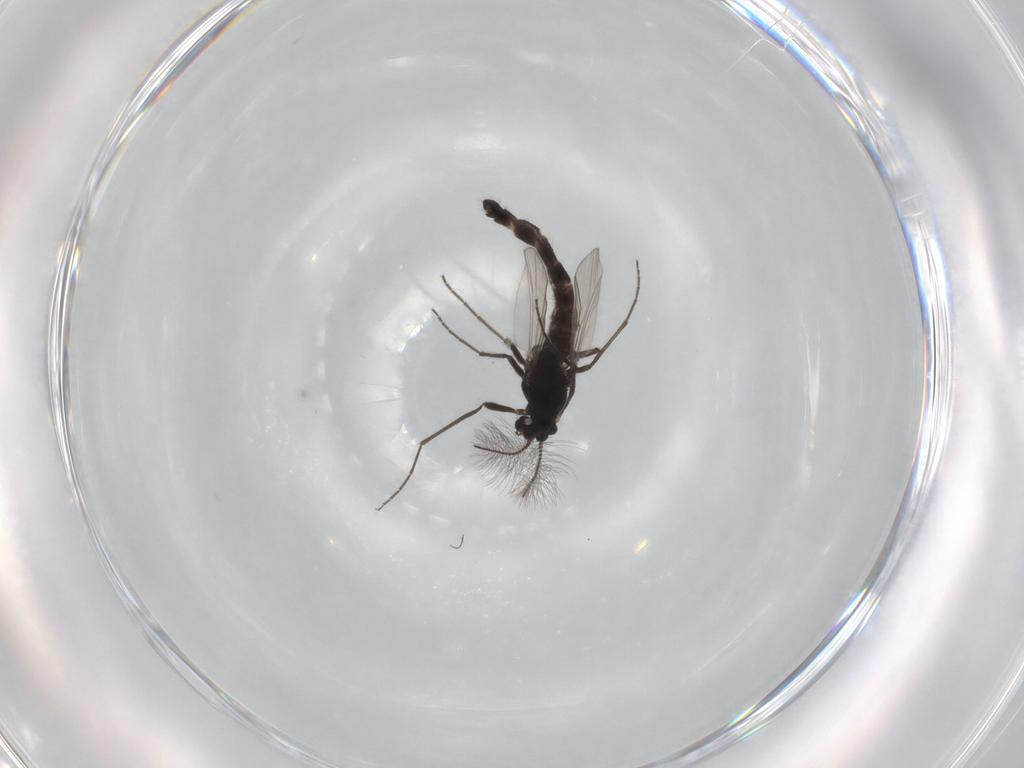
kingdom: Animalia
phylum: Arthropoda
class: Insecta
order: Diptera
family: Chironomidae
